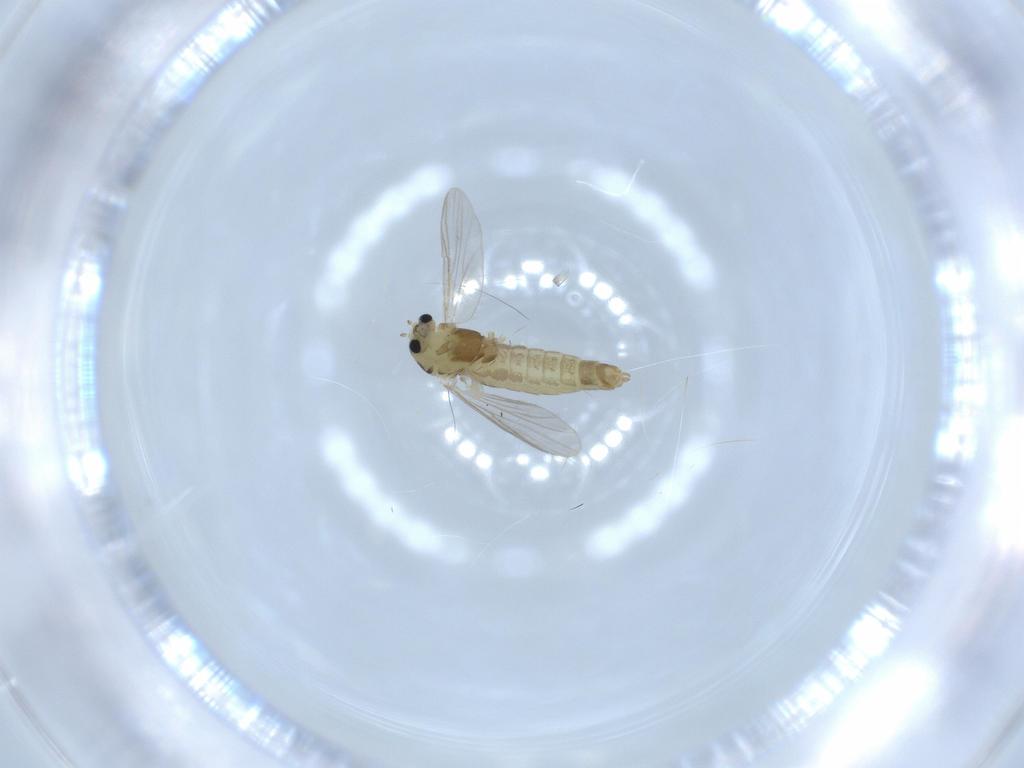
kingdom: Animalia
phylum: Arthropoda
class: Insecta
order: Diptera
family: Chironomidae
